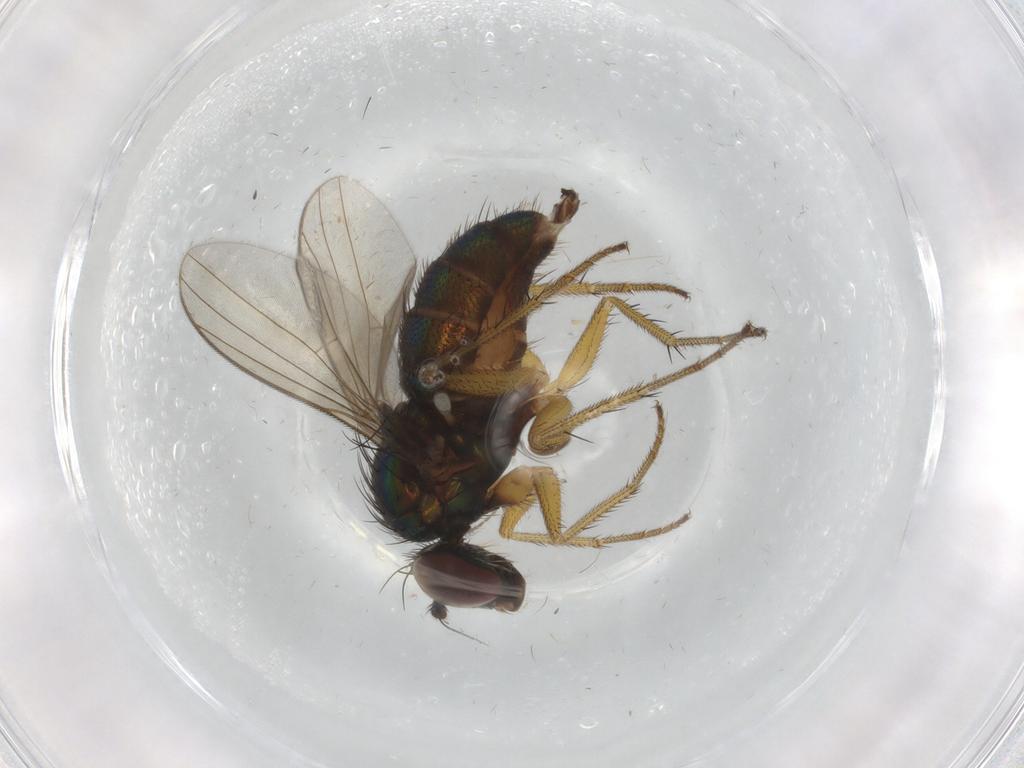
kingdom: Animalia
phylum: Arthropoda
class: Insecta
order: Diptera
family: Dolichopodidae
